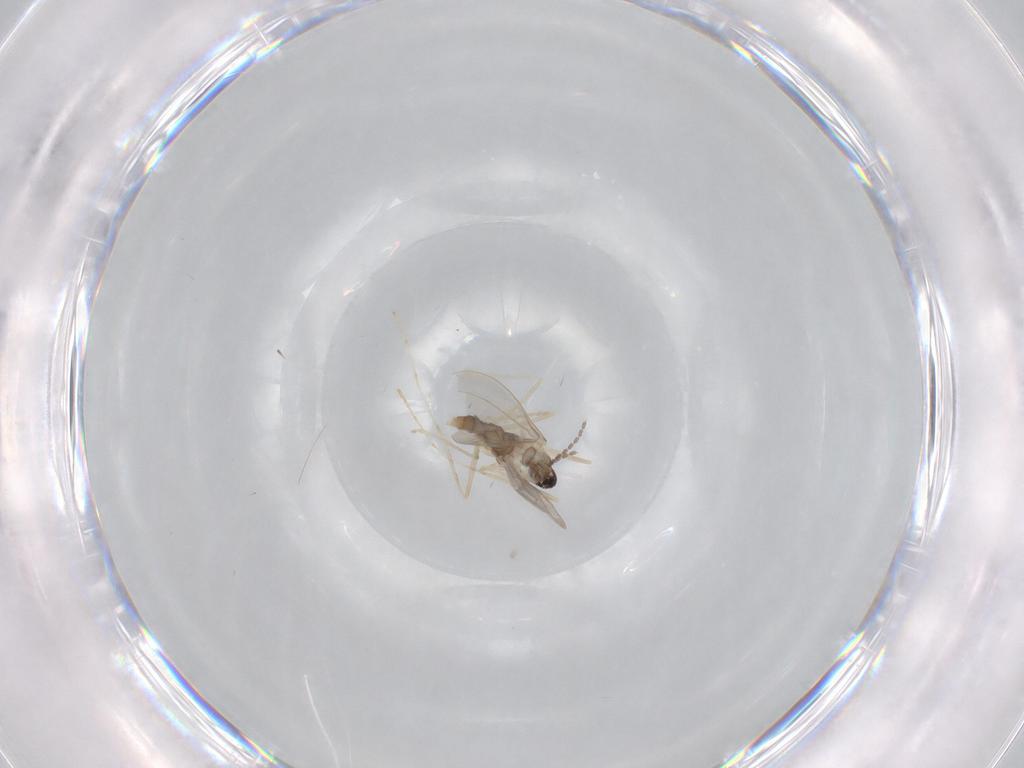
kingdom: Animalia
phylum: Arthropoda
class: Insecta
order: Diptera
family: Cecidomyiidae
